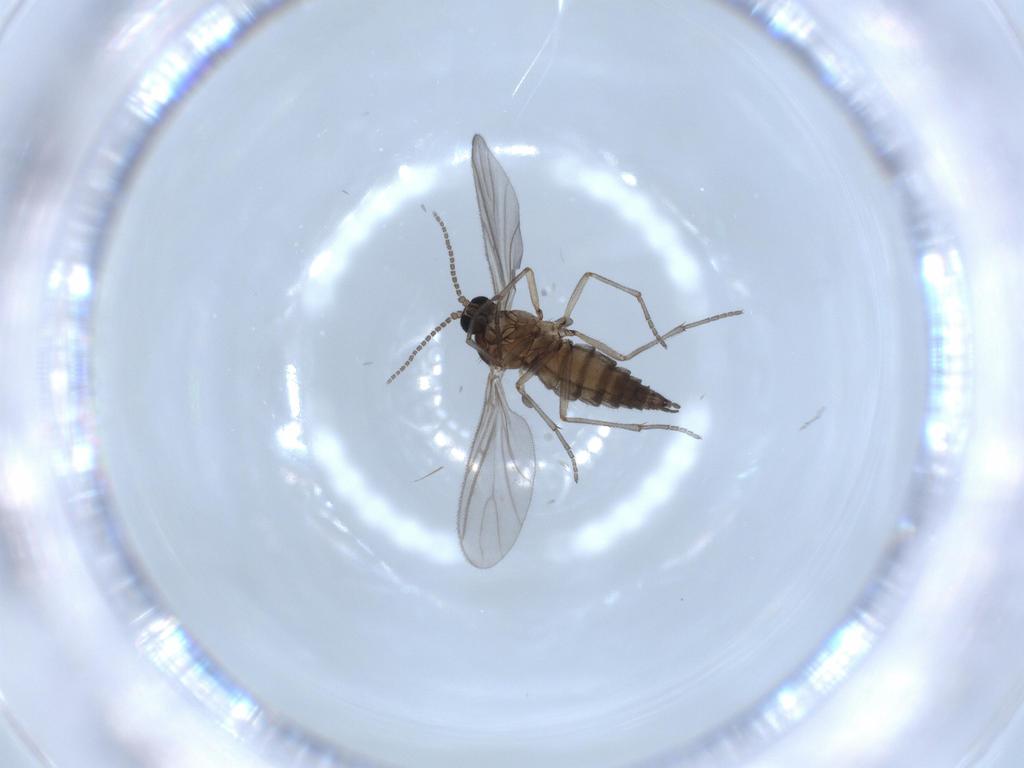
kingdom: Animalia
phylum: Arthropoda
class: Insecta
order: Diptera
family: Sciaridae
